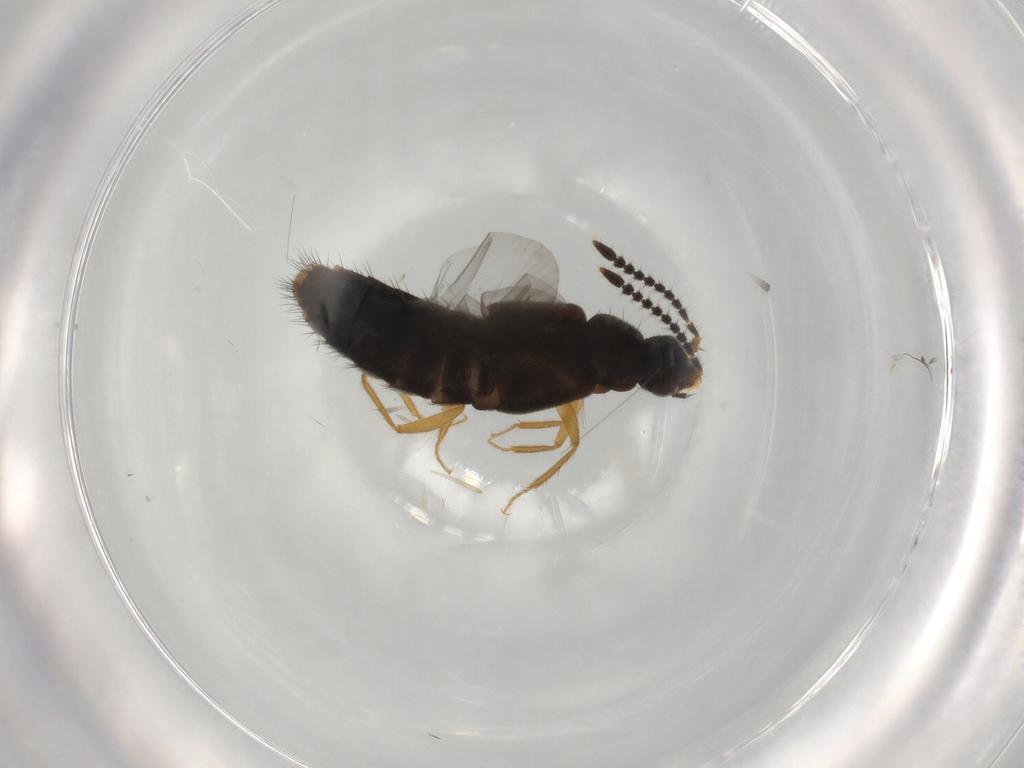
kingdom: Animalia
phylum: Arthropoda
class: Insecta
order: Coleoptera
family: Staphylinidae
